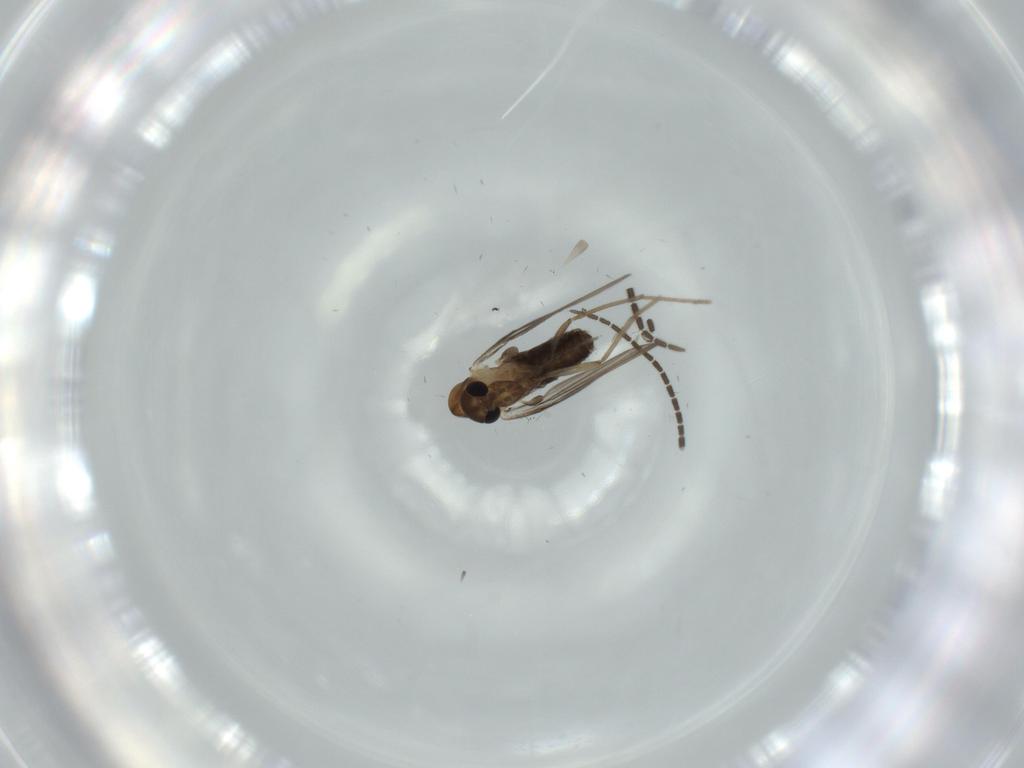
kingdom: Animalia
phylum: Arthropoda
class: Insecta
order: Diptera
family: Psychodidae
